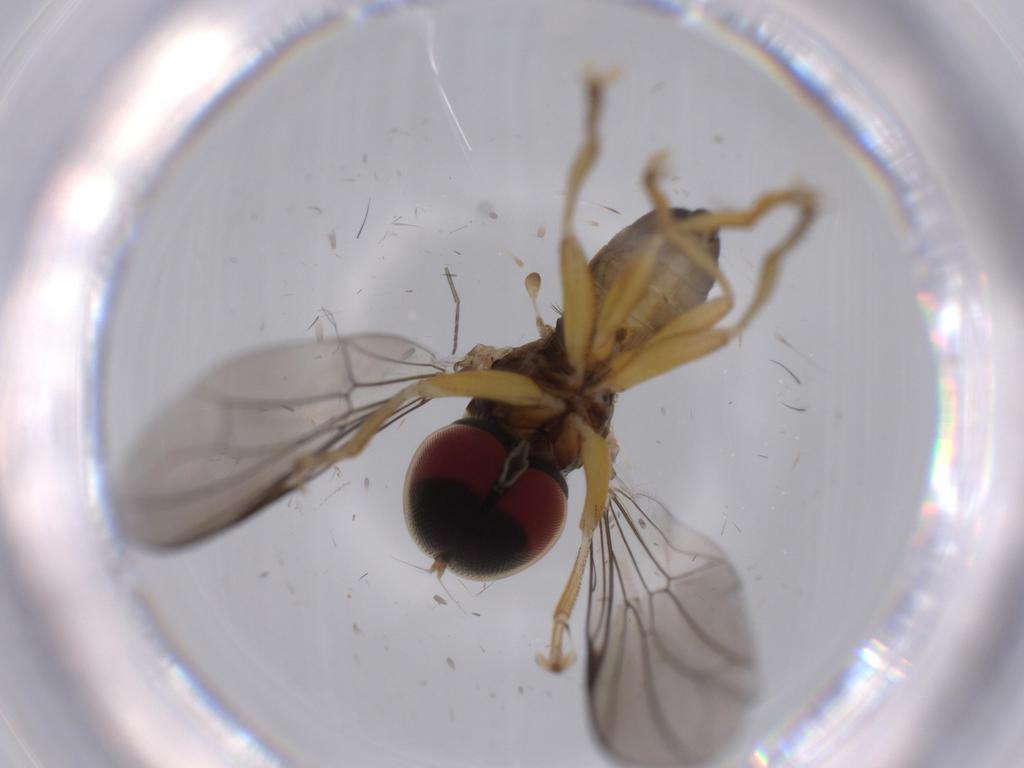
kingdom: Animalia
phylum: Arthropoda
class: Insecta
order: Diptera
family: Pipunculidae
